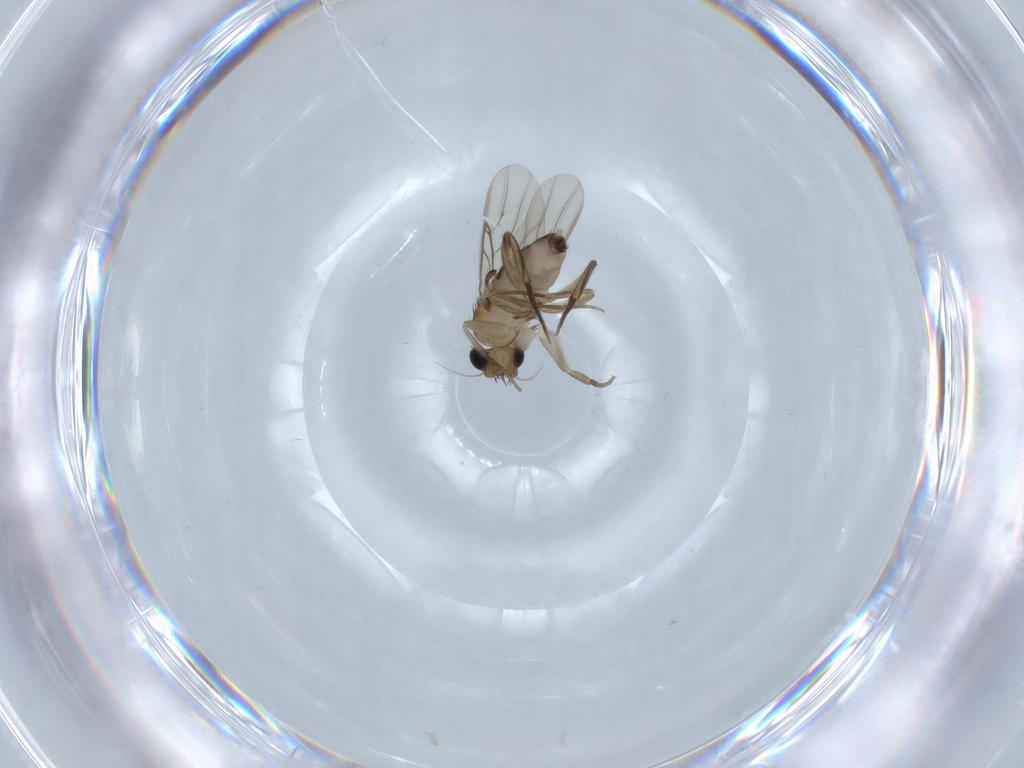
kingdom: Animalia
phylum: Arthropoda
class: Insecta
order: Diptera
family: Phoridae
